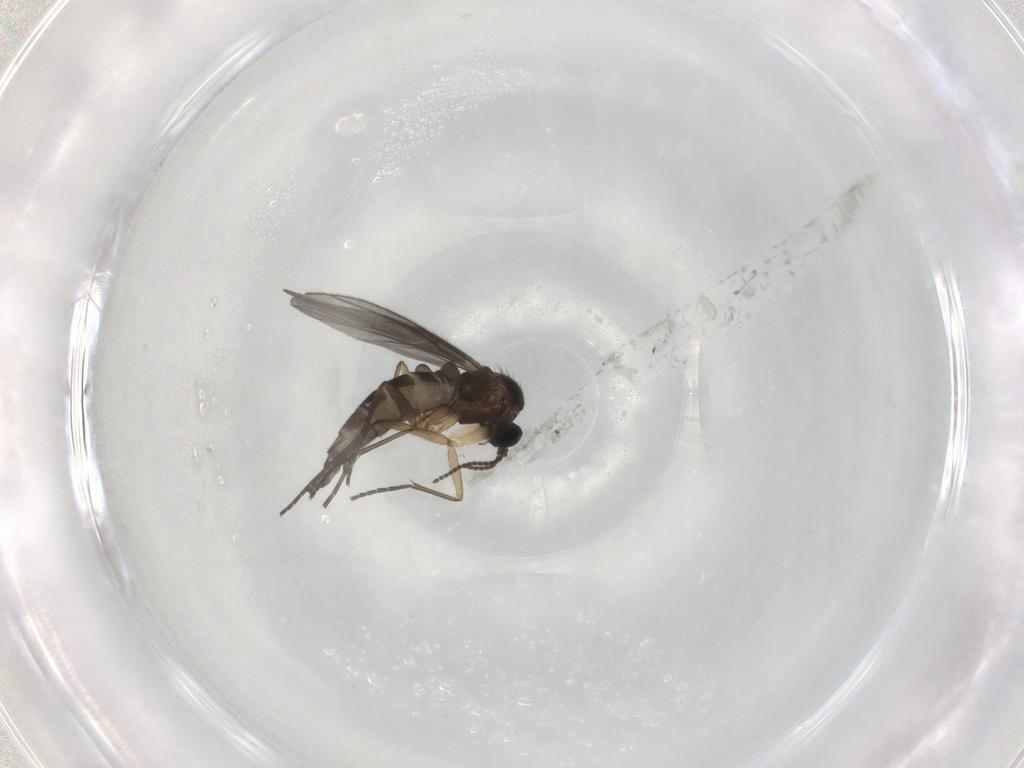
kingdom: Animalia
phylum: Arthropoda
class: Insecta
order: Diptera
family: Sciaridae
